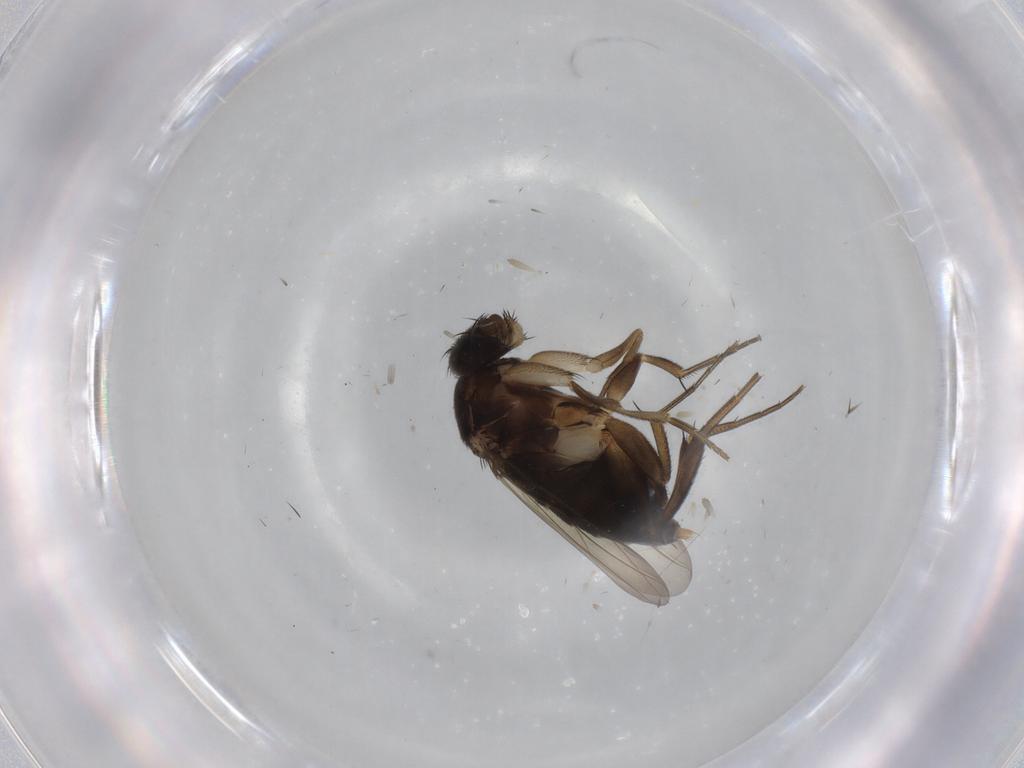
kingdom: Animalia
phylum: Arthropoda
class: Insecta
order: Diptera
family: Phoridae
